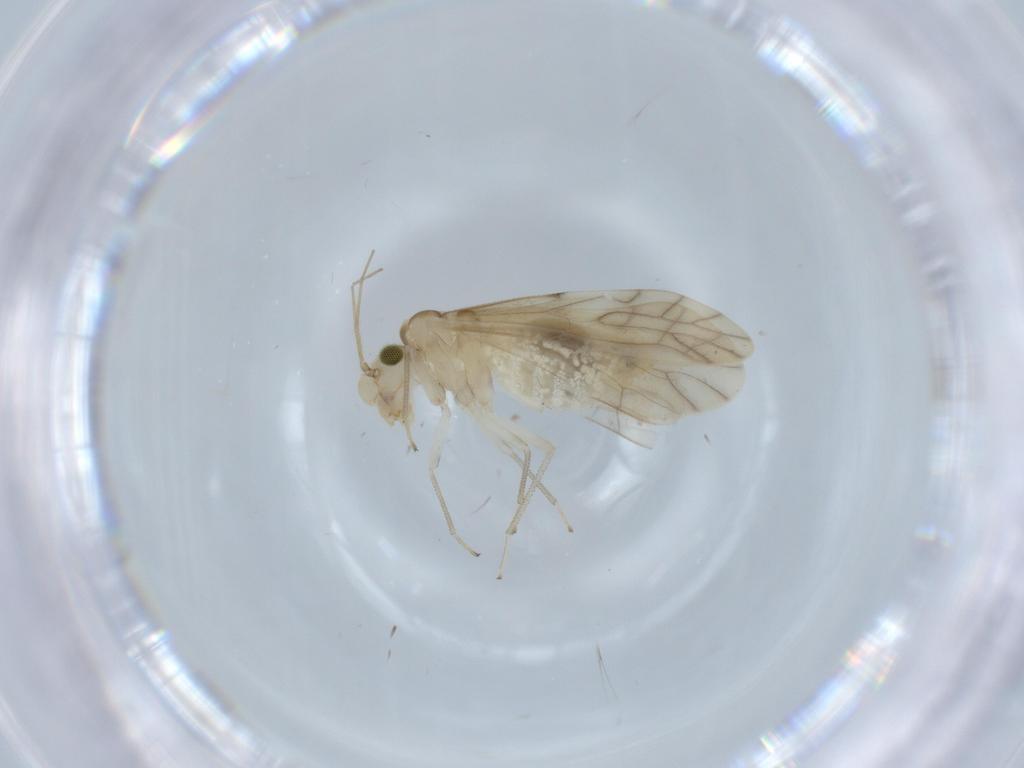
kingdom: Animalia
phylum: Arthropoda
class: Insecta
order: Psocodea
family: Caeciliusidae
